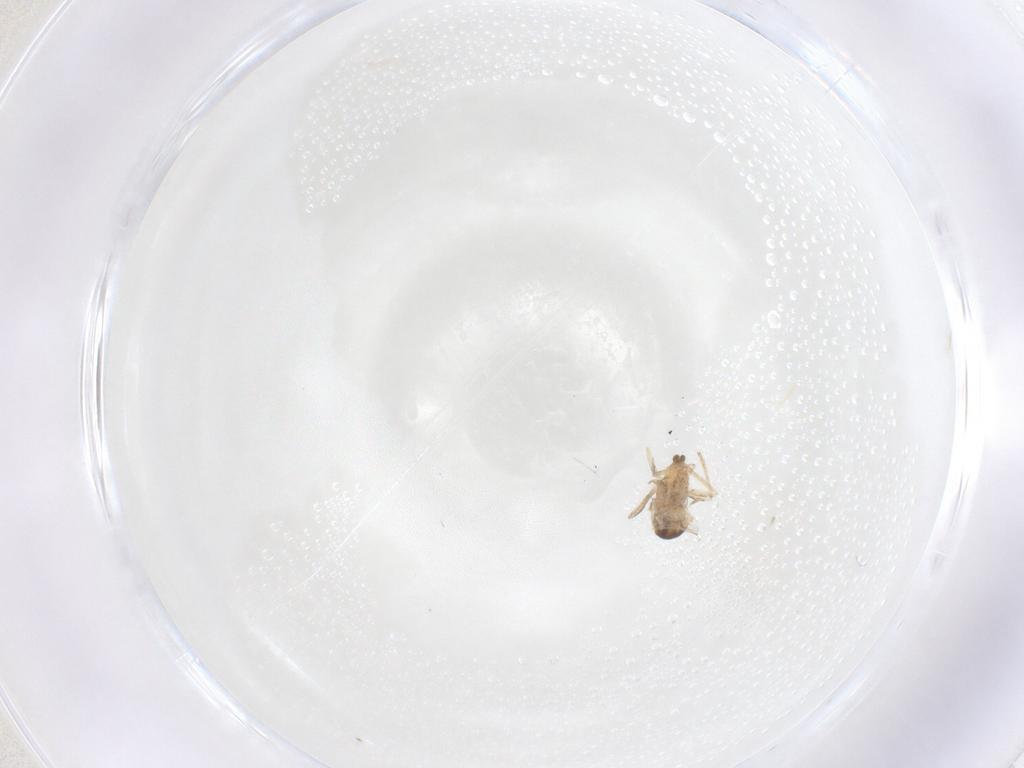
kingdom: Animalia
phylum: Arthropoda
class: Insecta
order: Diptera
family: Cecidomyiidae
